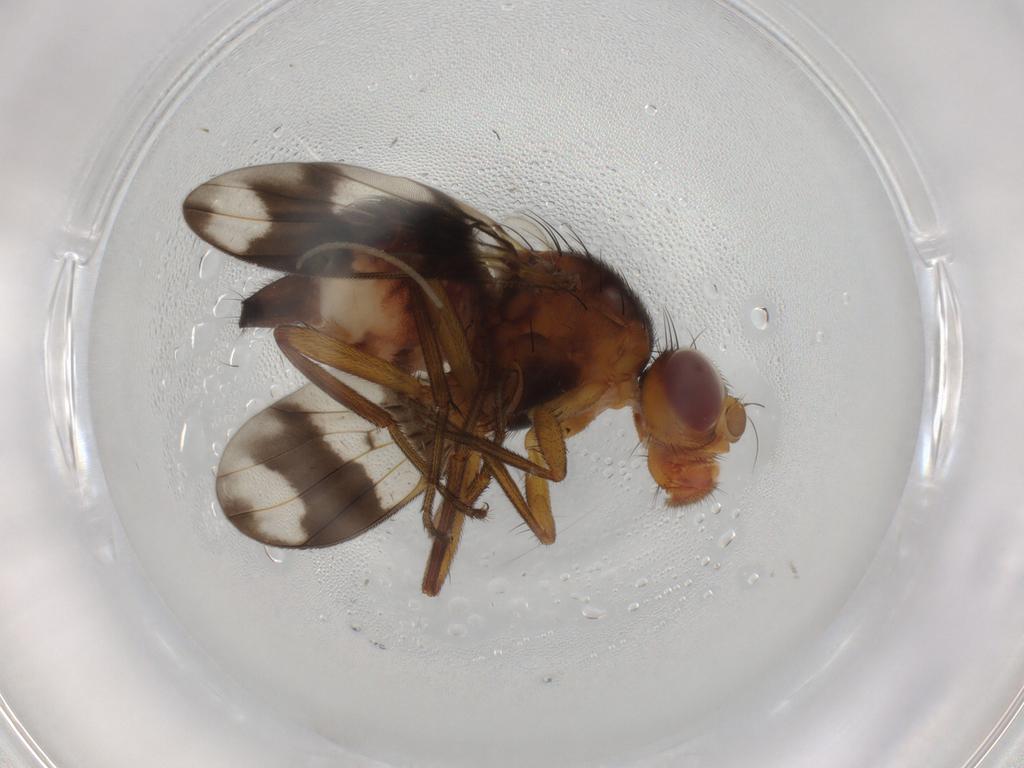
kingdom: Animalia
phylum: Arthropoda
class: Insecta
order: Diptera
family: Richardiidae
